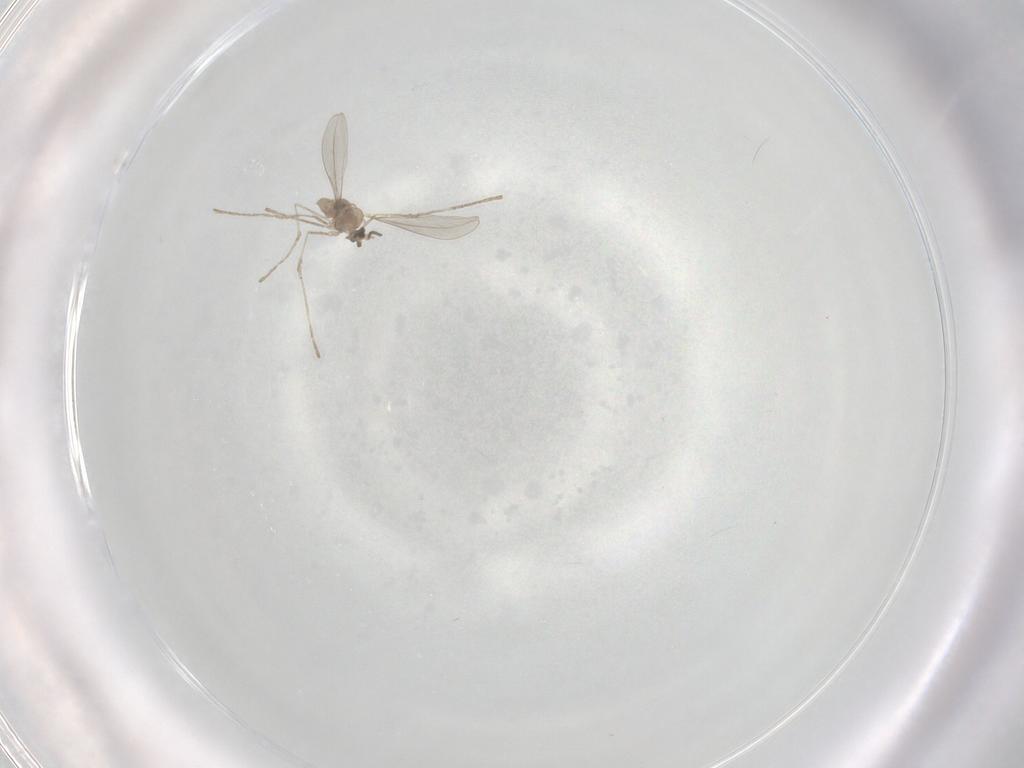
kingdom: Animalia
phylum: Arthropoda
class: Insecta
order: Diptera
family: Cecidomyiidae
